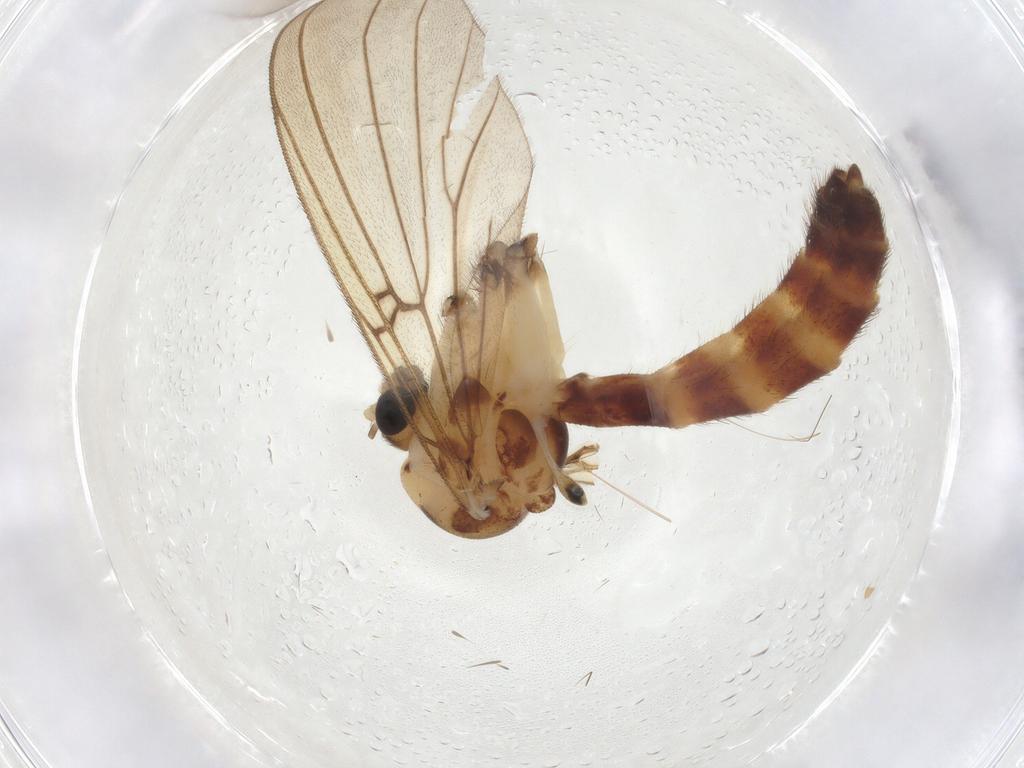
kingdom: Animalia
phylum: Arthropoda
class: Insecta
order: Diptera
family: Mycetophilidae
